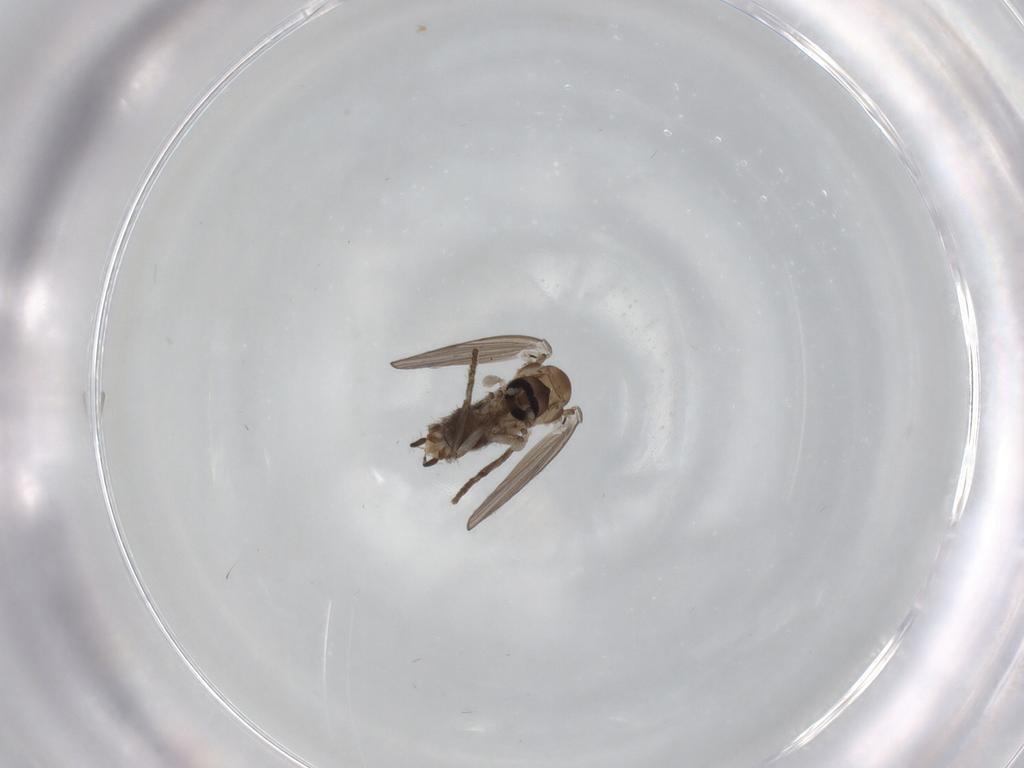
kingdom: Animalia
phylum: Arthropoda
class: Insecta
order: Diptera
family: Psychodidae
